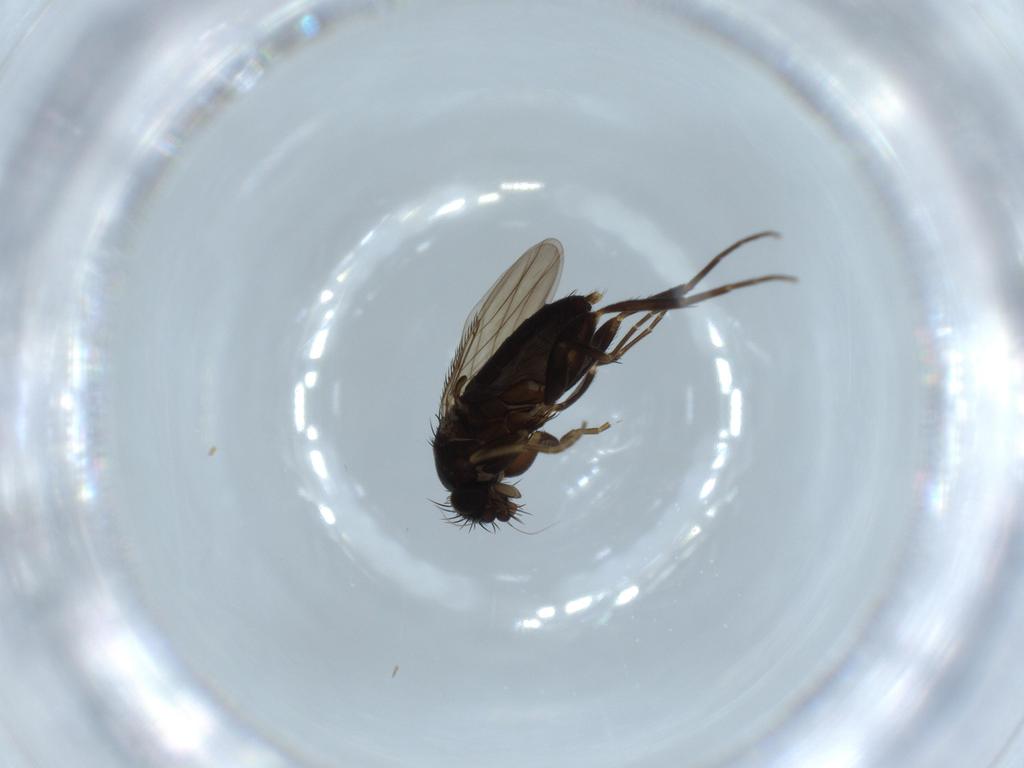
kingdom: Animalia
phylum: Arthropoda
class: Insecta
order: Diptera
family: Phoridae
